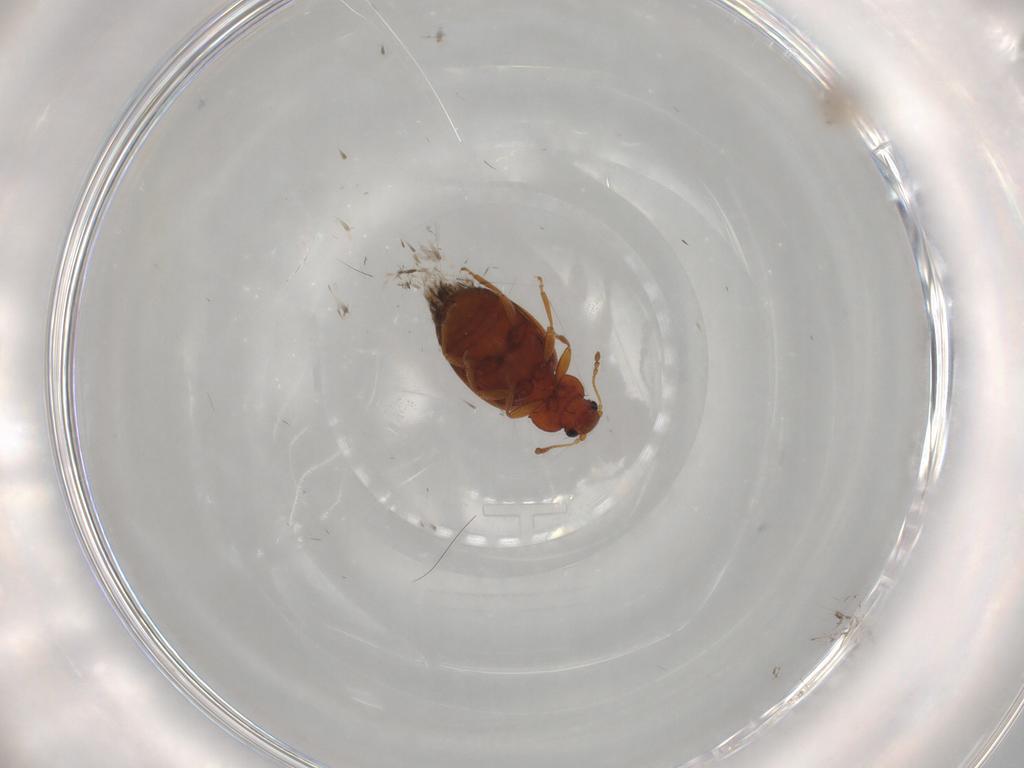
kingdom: Animalia
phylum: Arthropoda
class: Insecta
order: Coleoptera
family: Latridiidae
